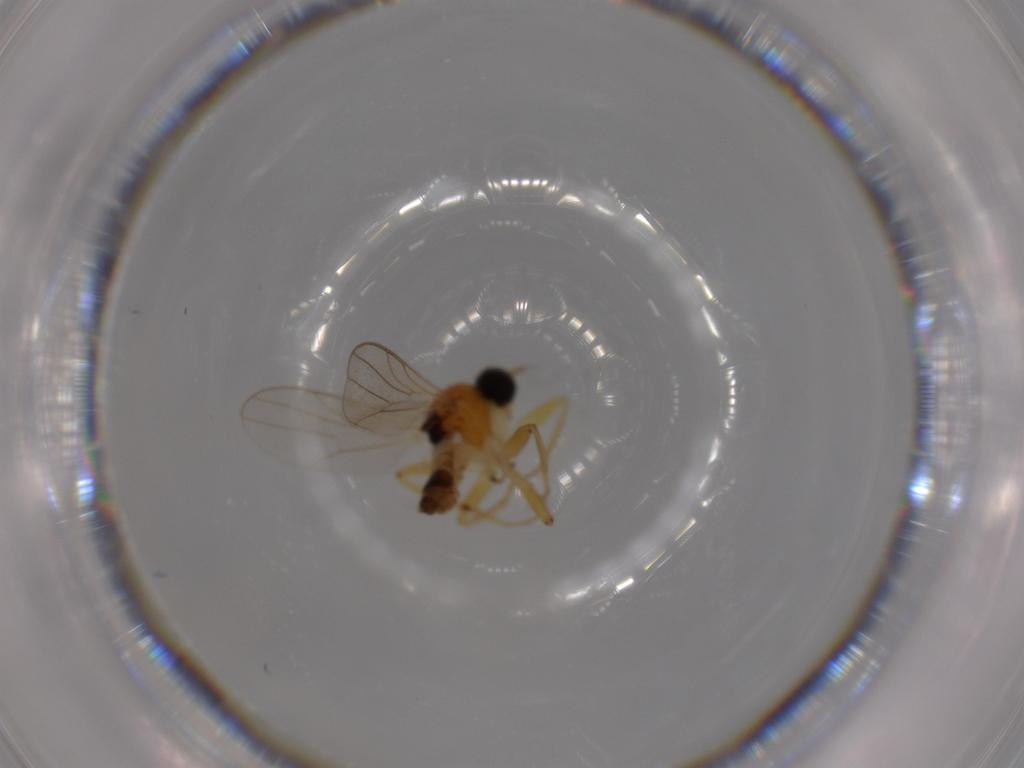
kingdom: Animalia
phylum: Arthropoda
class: Insecta
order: Diptera
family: Hybotidae
